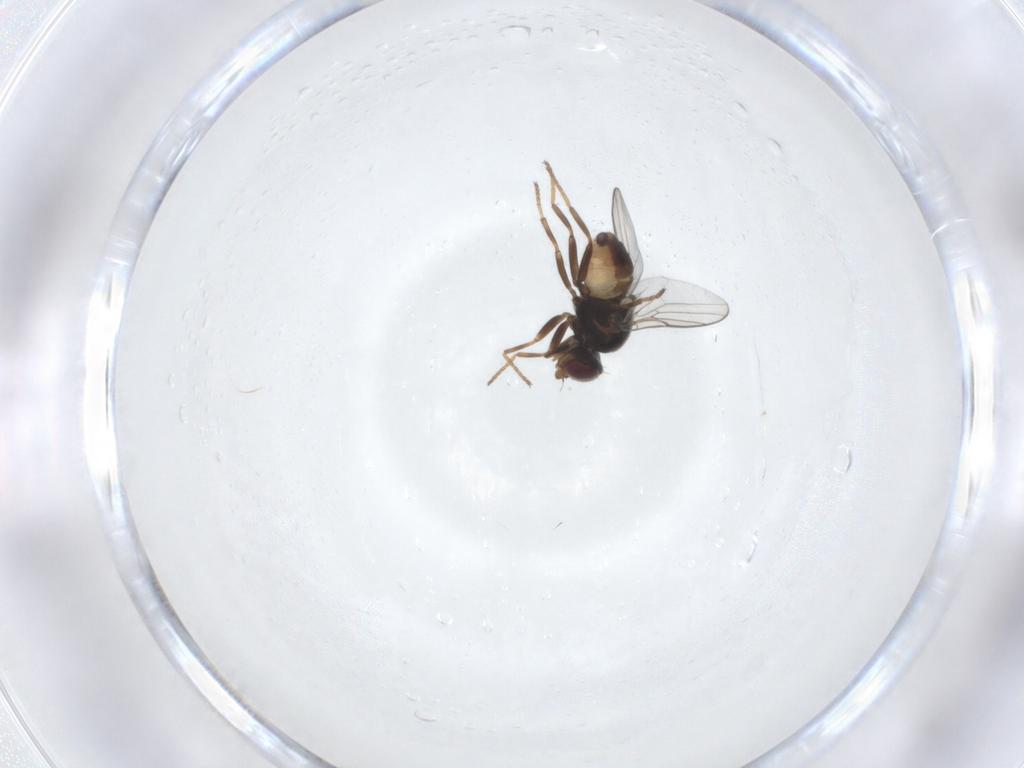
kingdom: Animalia
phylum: Arthropoda
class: Insecta
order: Diptera
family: Chloropidae
